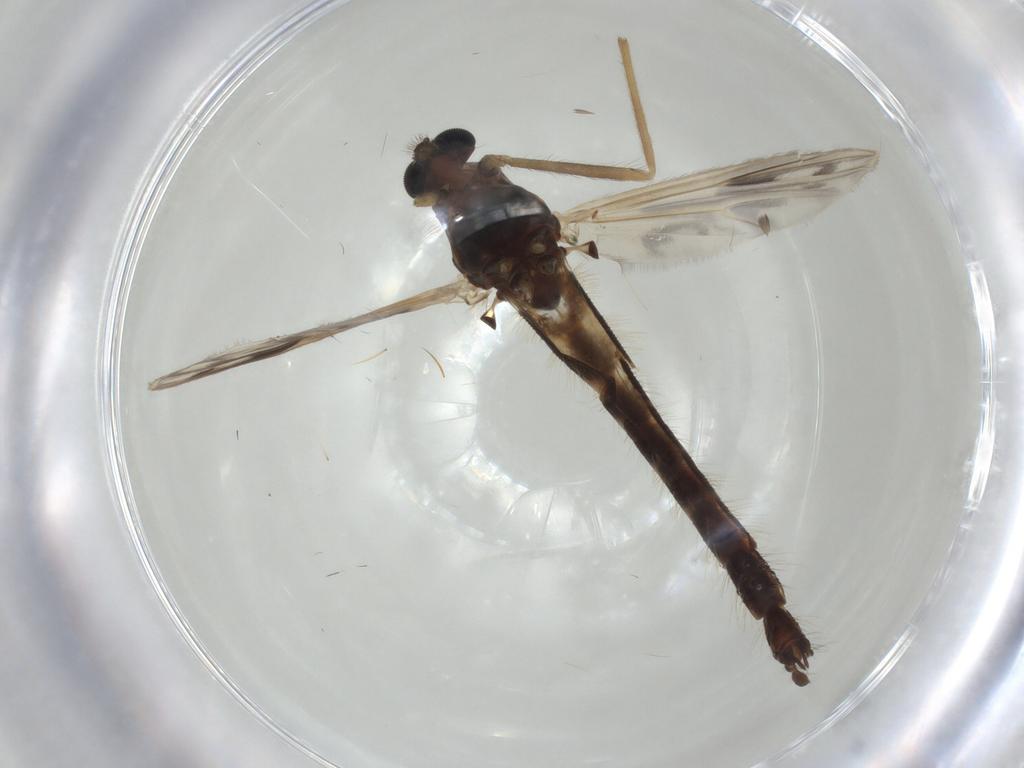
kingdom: Animalia
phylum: Arthropoda
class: Insecta
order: Diptera
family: Chironomidae
